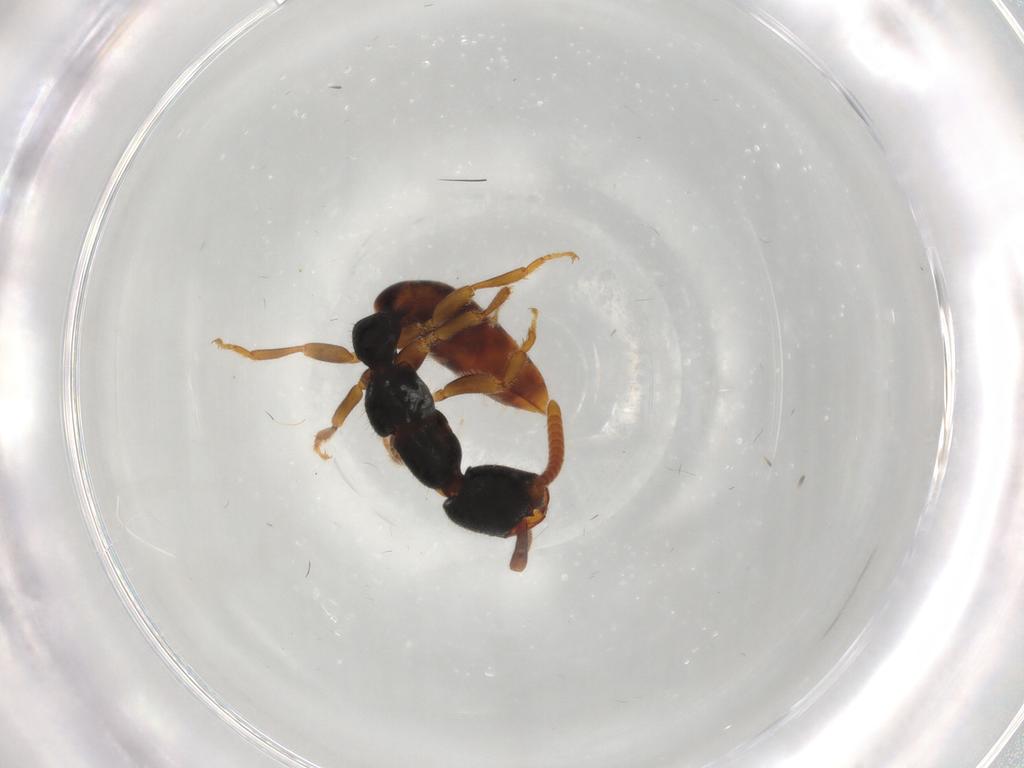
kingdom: Animalia
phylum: Arthropoda
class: Insecta
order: Hymenoptera
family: Bethylidae
